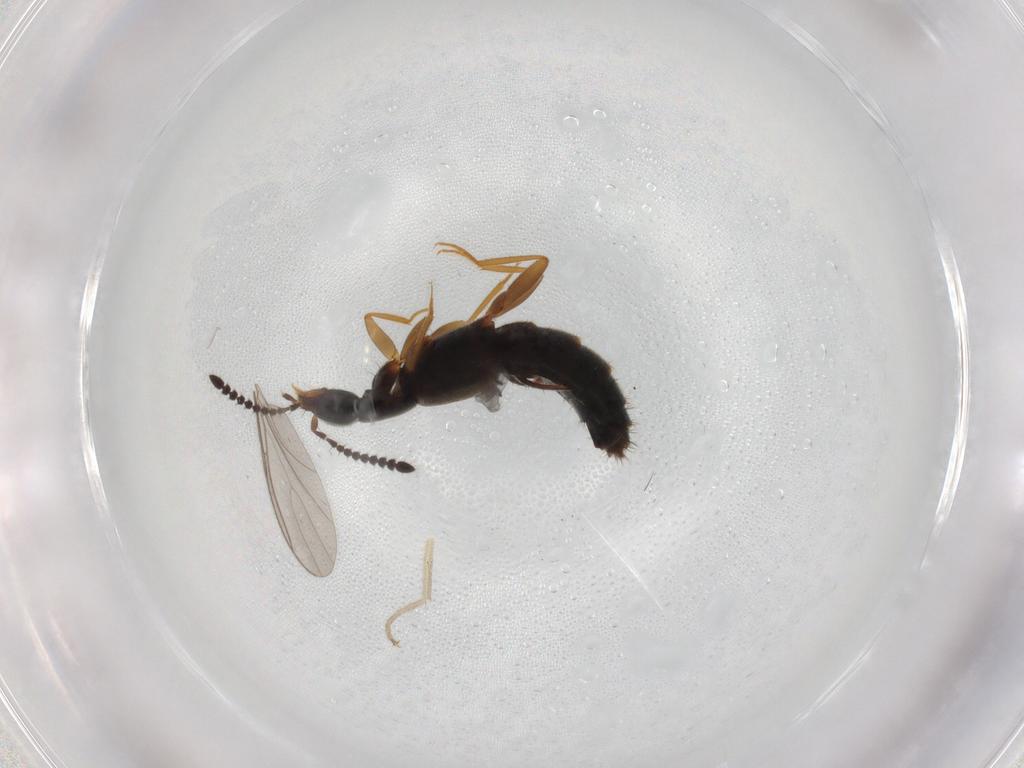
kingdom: Animalia
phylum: Arthropoda
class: Insecta
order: Coleoptera
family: Staphylinidae
